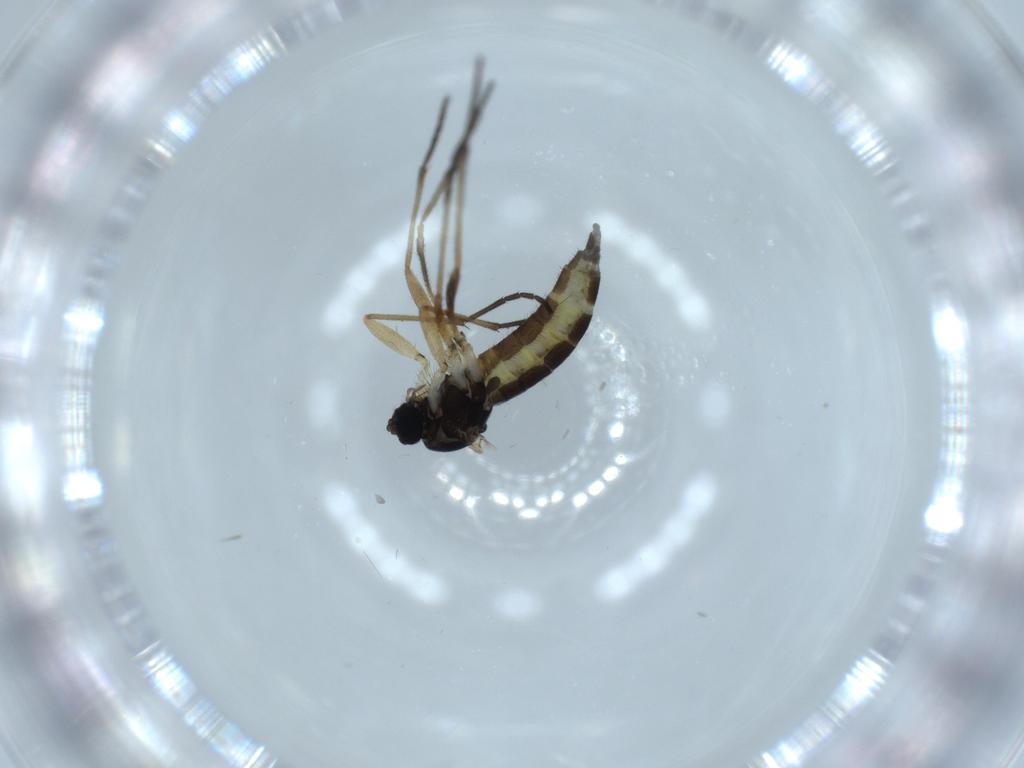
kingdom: Animalia
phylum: Arthropoda
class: Insecta
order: Diptera
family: Sciaridae
